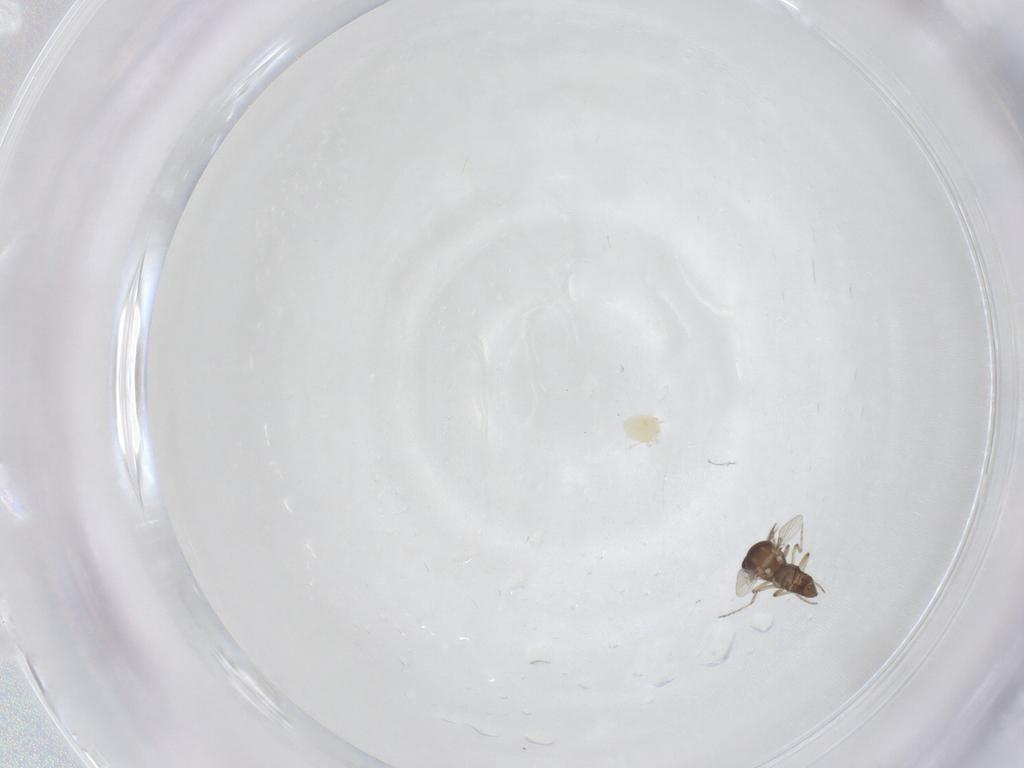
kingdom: Animalia
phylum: Arthropoda
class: Insecta
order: Diptera
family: Ceratopogonidae
